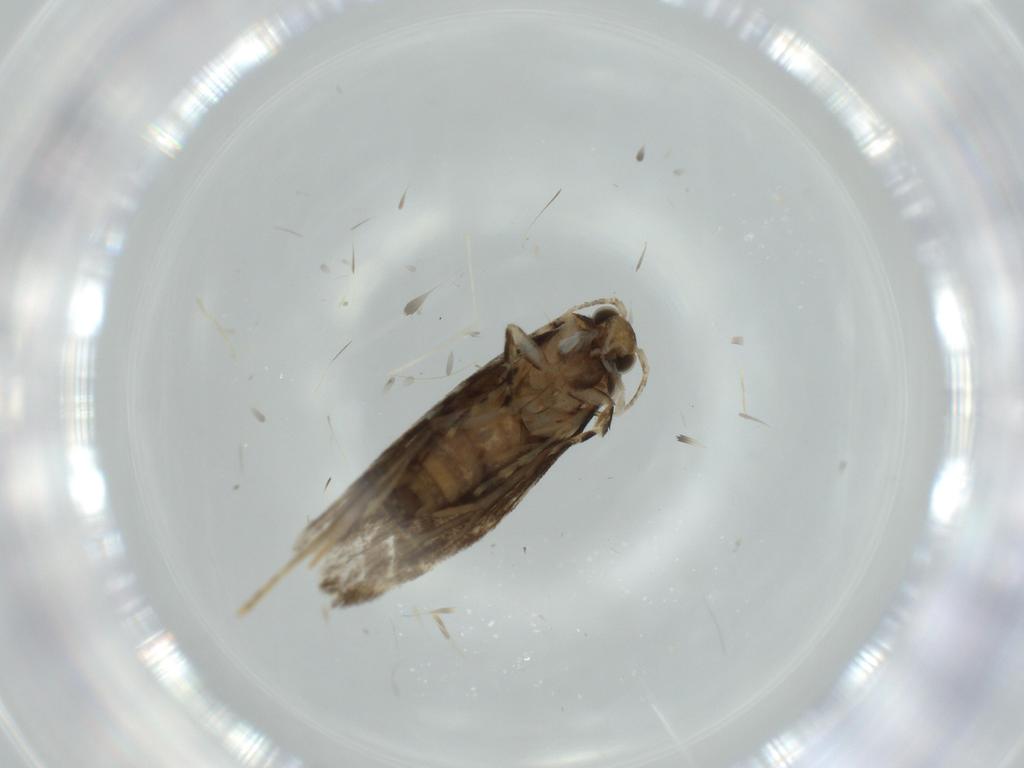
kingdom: Animalia
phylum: Arthropoda
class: Insecta
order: Lepidoptera
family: Tineidae
